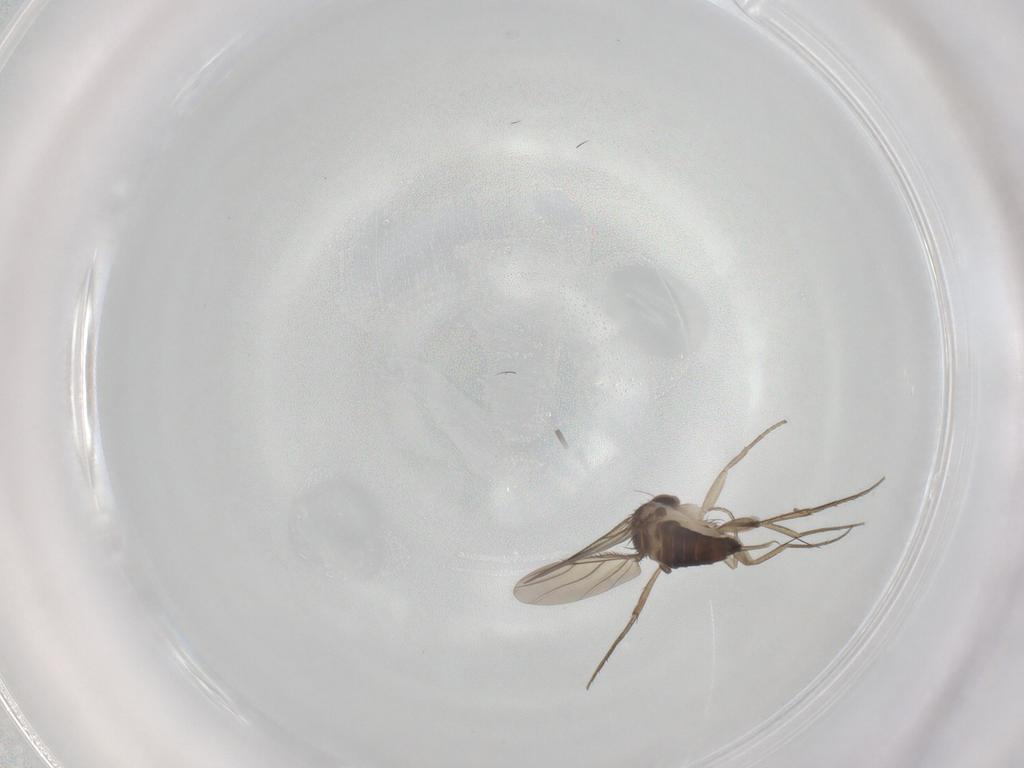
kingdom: Animalia
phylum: Arthropoda
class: Insecta
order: Diptera
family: Phoridae
